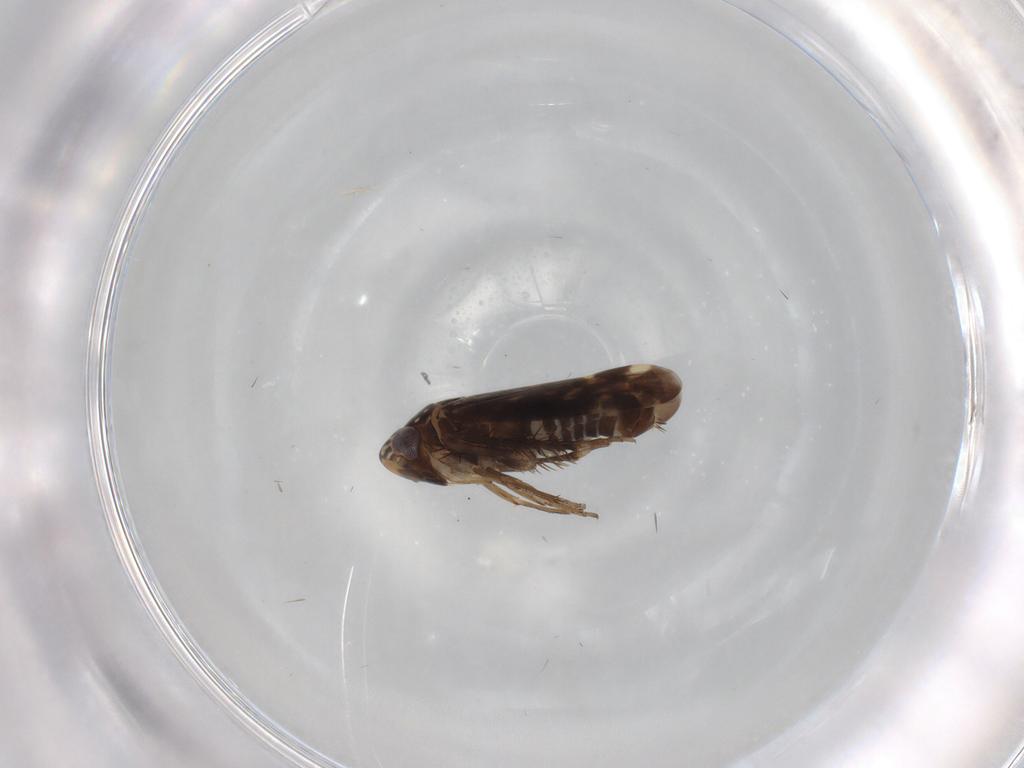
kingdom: Animalia
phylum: Arthropoda
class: Insecta
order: Hemiptera
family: Cicadellidae
